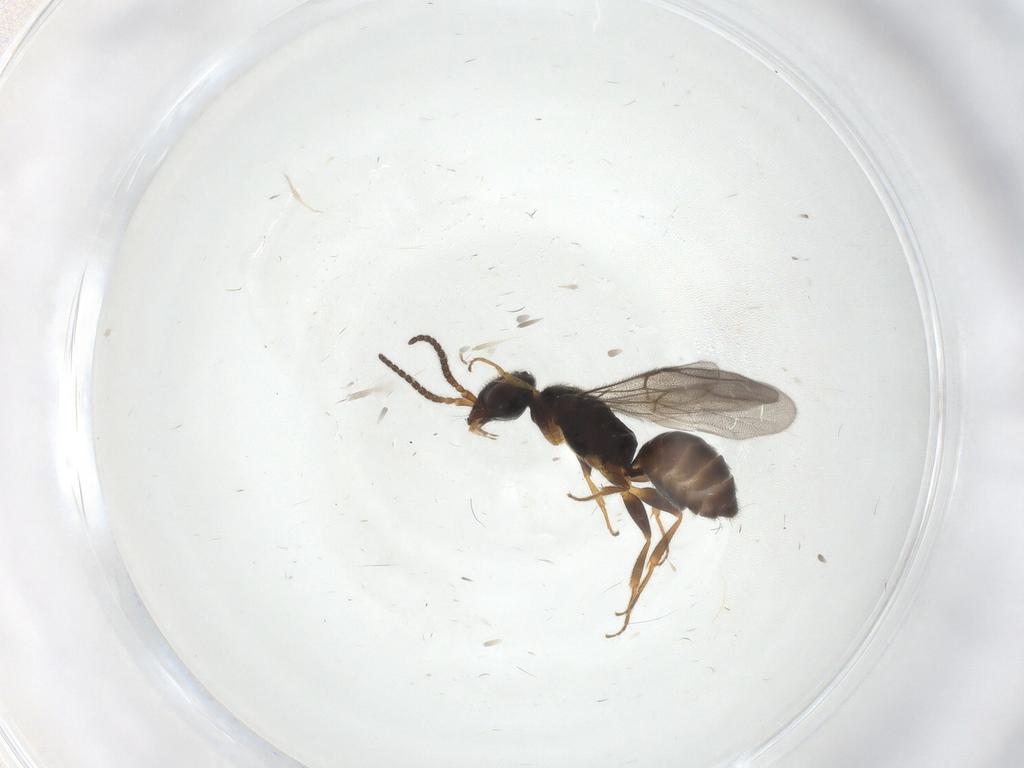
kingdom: Animalia
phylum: Arthropoda
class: Insecta
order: Hymenoptera
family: Bethylidae
